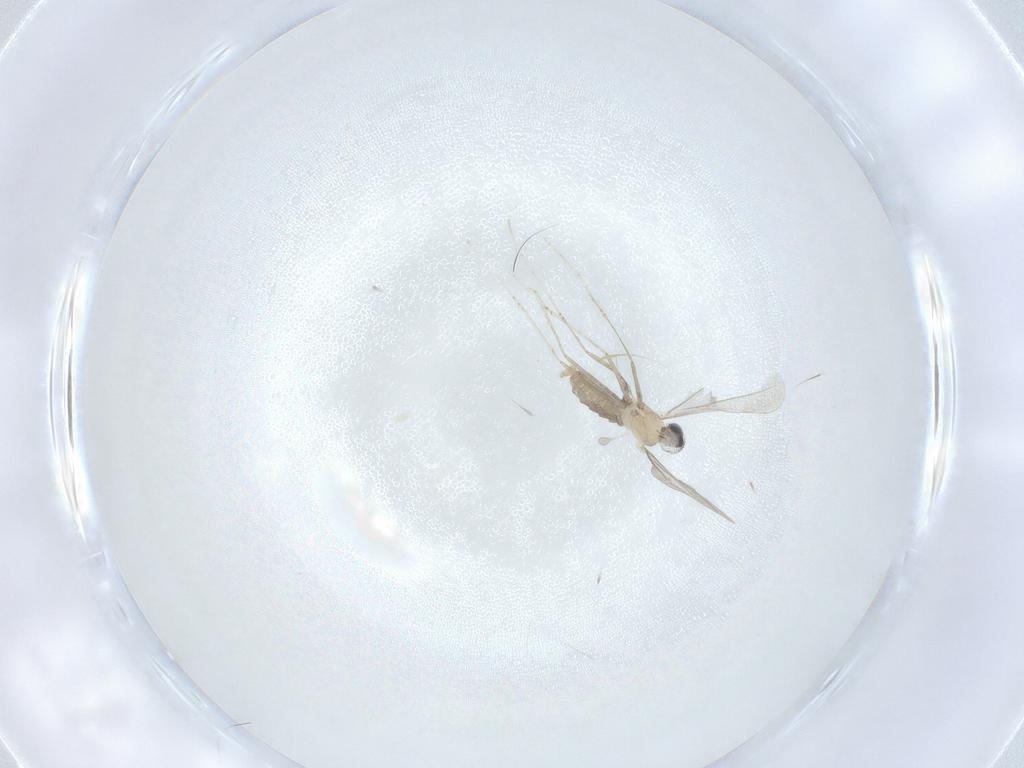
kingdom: Animalia
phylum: Arthropoda
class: Insecta
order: Diptera
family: Cecidomyiidae
